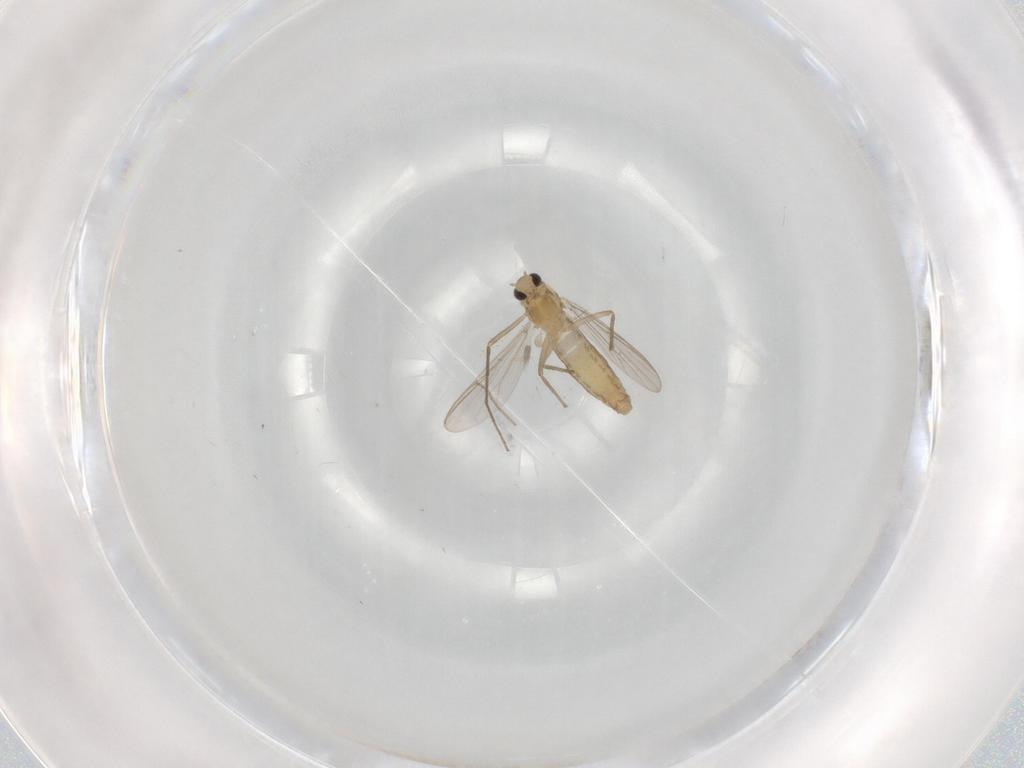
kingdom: Animalia
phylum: Arthropoda
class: Insecta
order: Diptera
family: Chironomidae
